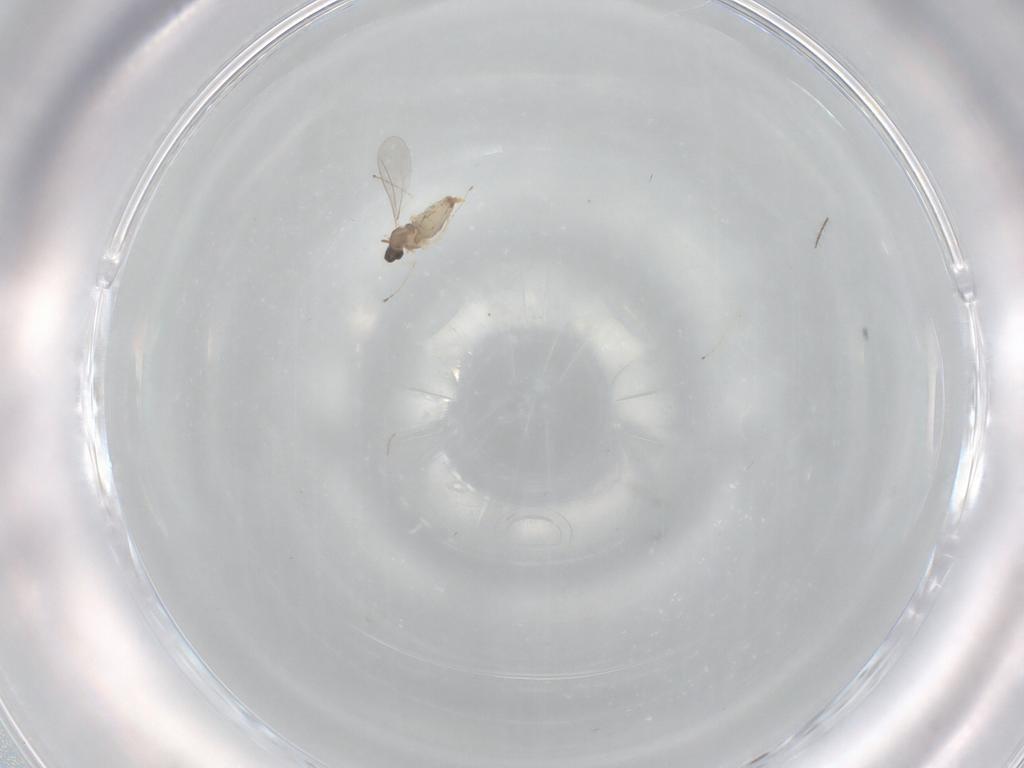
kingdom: Animalia
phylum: Arthropoda
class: Insecta
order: Diptera
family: Cecidomyiidae
